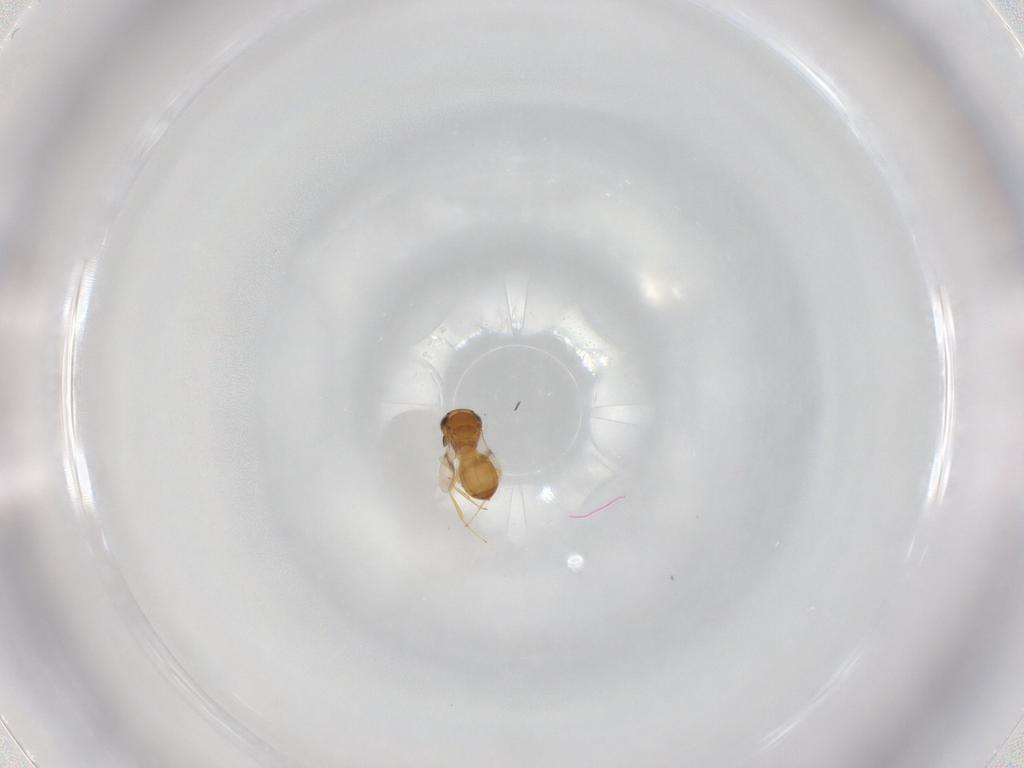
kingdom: Animalia
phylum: Arthropoda
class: Insecta
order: Hymenoptera
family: Scelionidae
